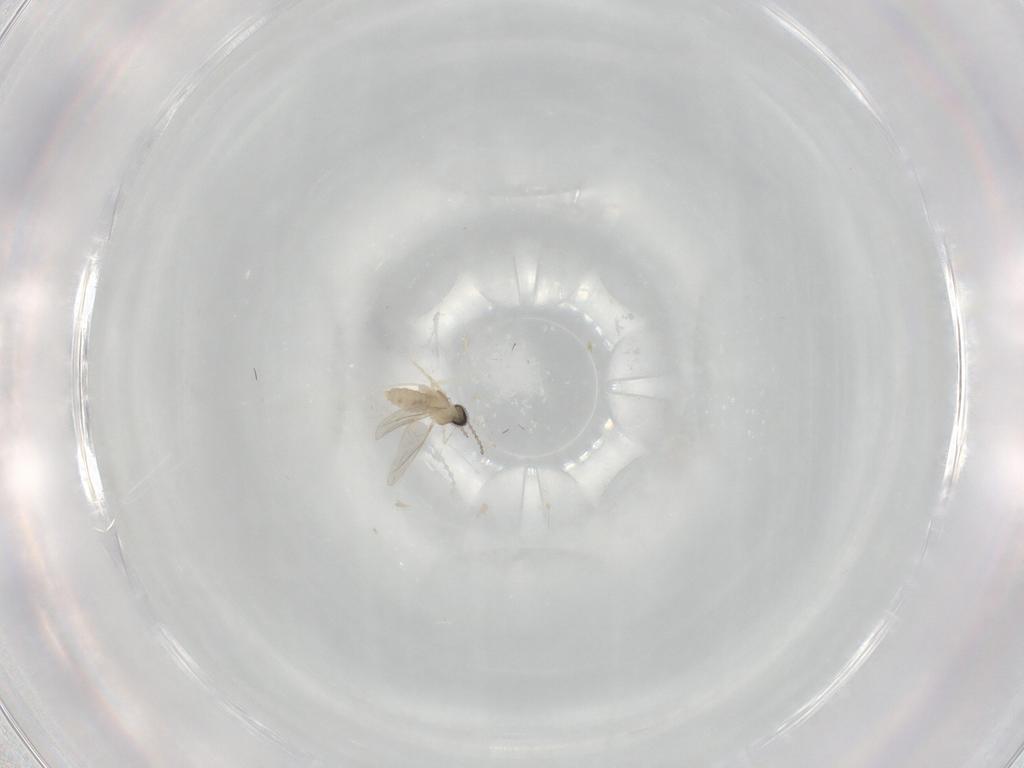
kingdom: Animalia
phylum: Arthropoda
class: Insecta
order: Diptera
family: Cecidomyiidae
